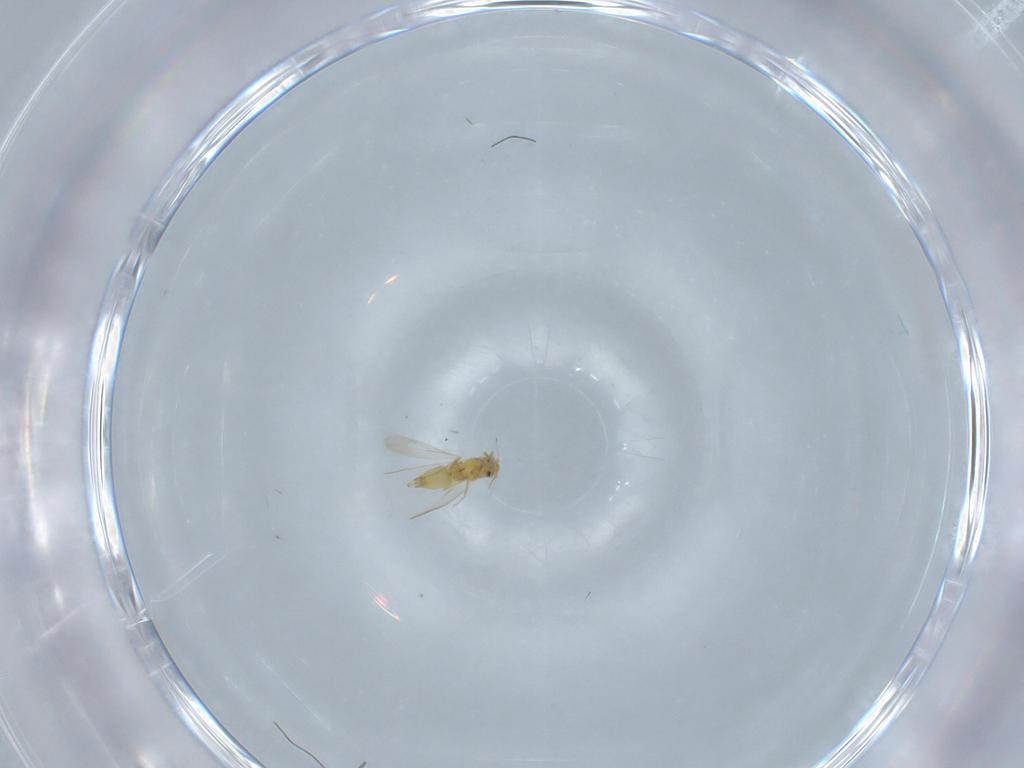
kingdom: Animalia
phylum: Arthropoda
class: Insecta
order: Hemiptera
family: Aleyrodidae
